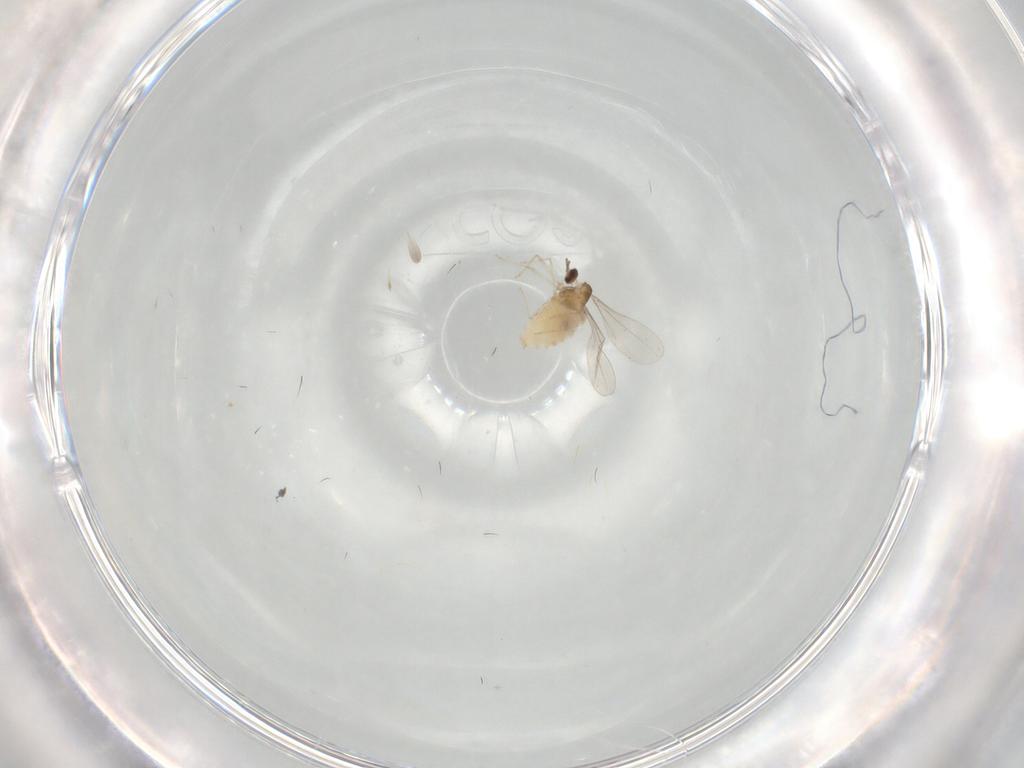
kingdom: Animalia
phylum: Arthropoda
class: Insecta
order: Diptera
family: Cecidomyiidae
